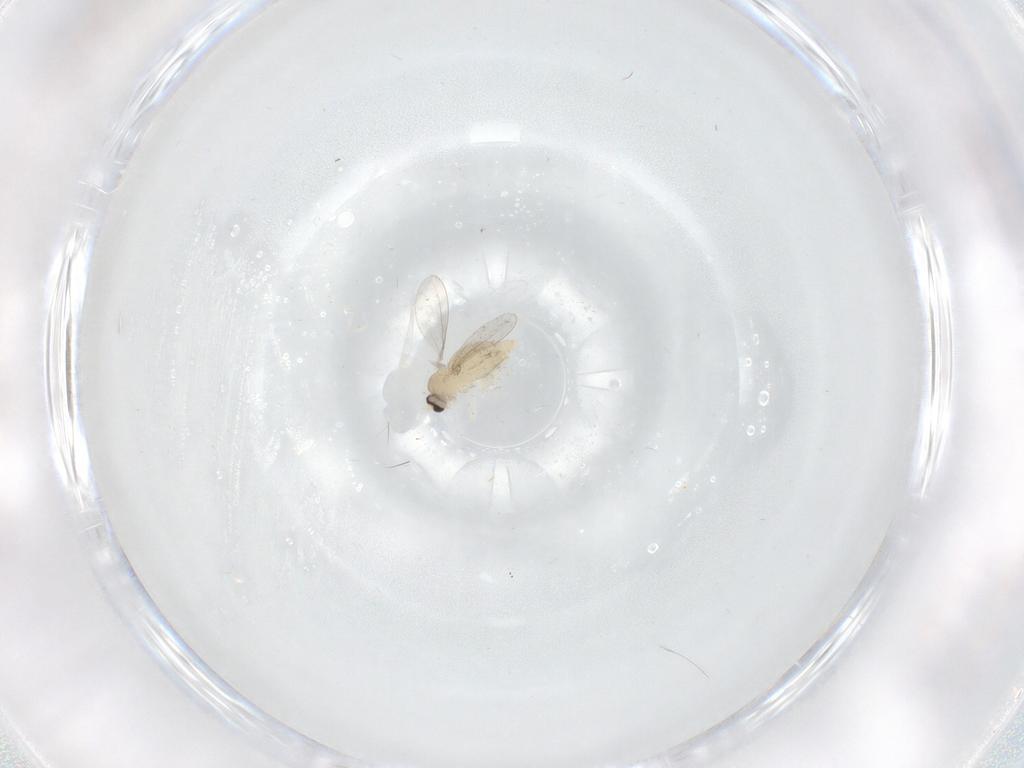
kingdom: Animalia
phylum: Arthropoda
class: Insecta
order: Diptera
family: Cecidomyiidae
